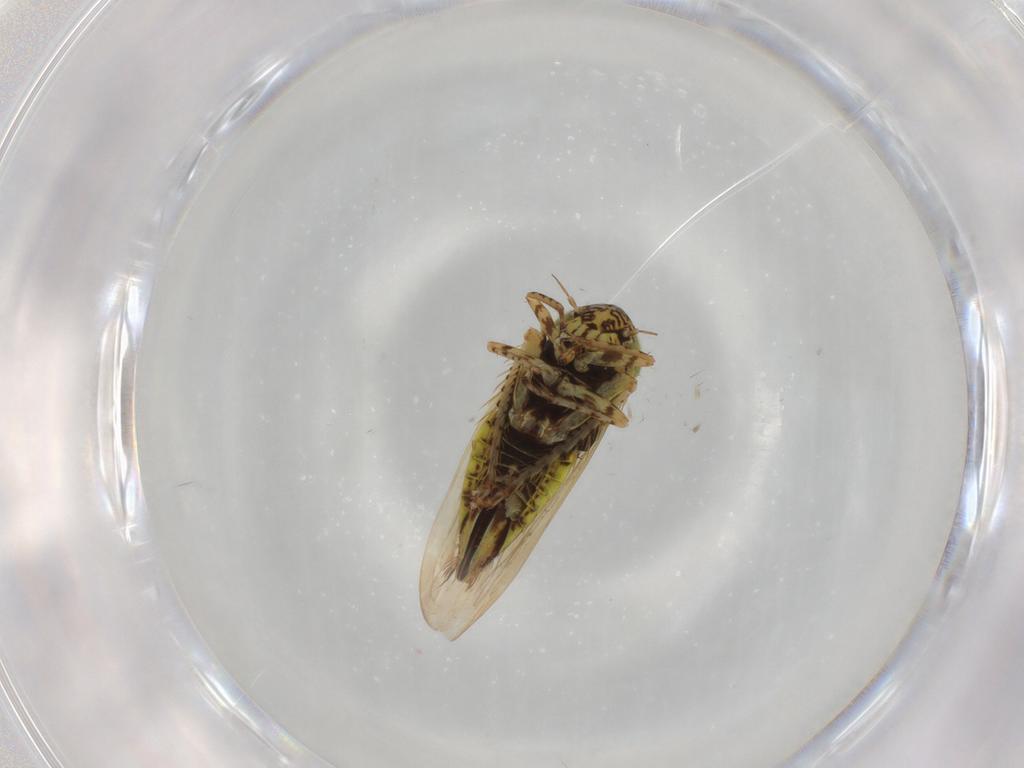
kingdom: Animalia
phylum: Arthropoda
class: Insecta
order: Hemiptera
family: Cicadellidae
